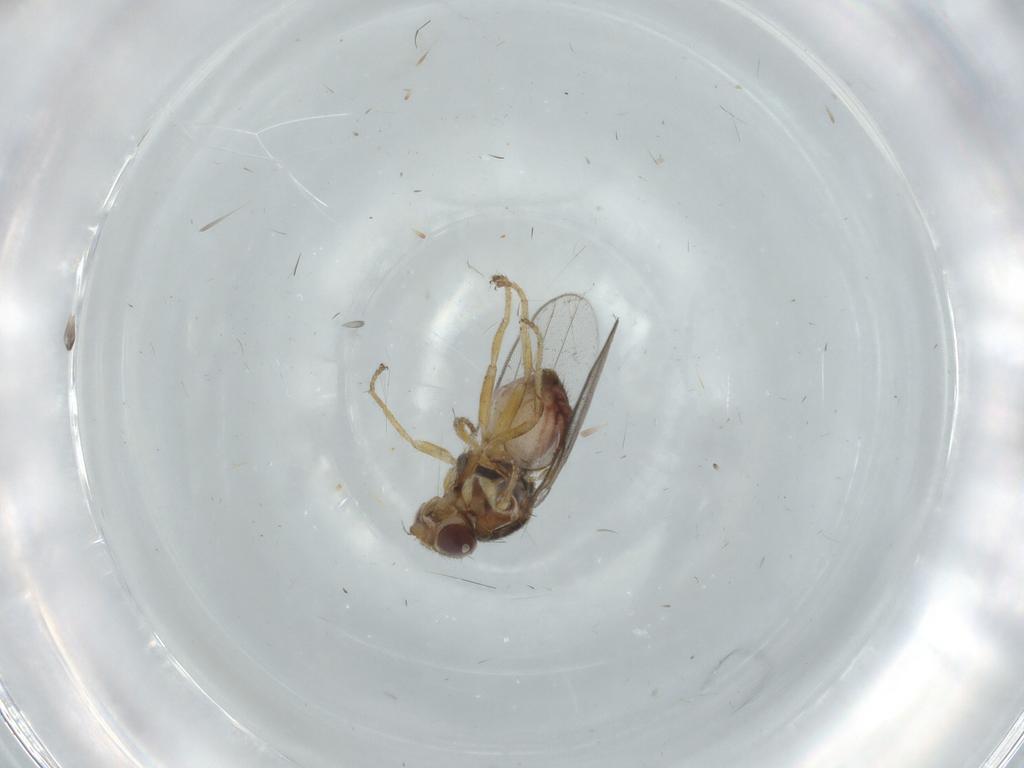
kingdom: Animalia
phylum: Arthropoda
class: Insecta
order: Diptera
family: Chloropidae
